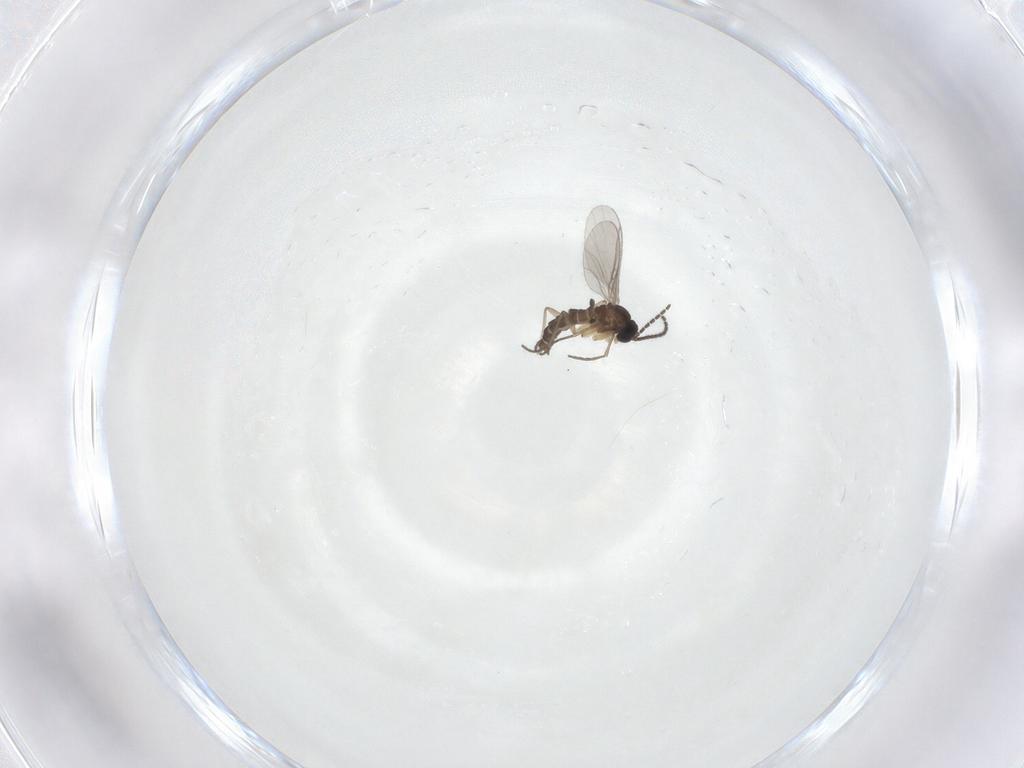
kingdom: Animalia
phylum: Arthropoda
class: Insecta
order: Diptera
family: Sciaridae
